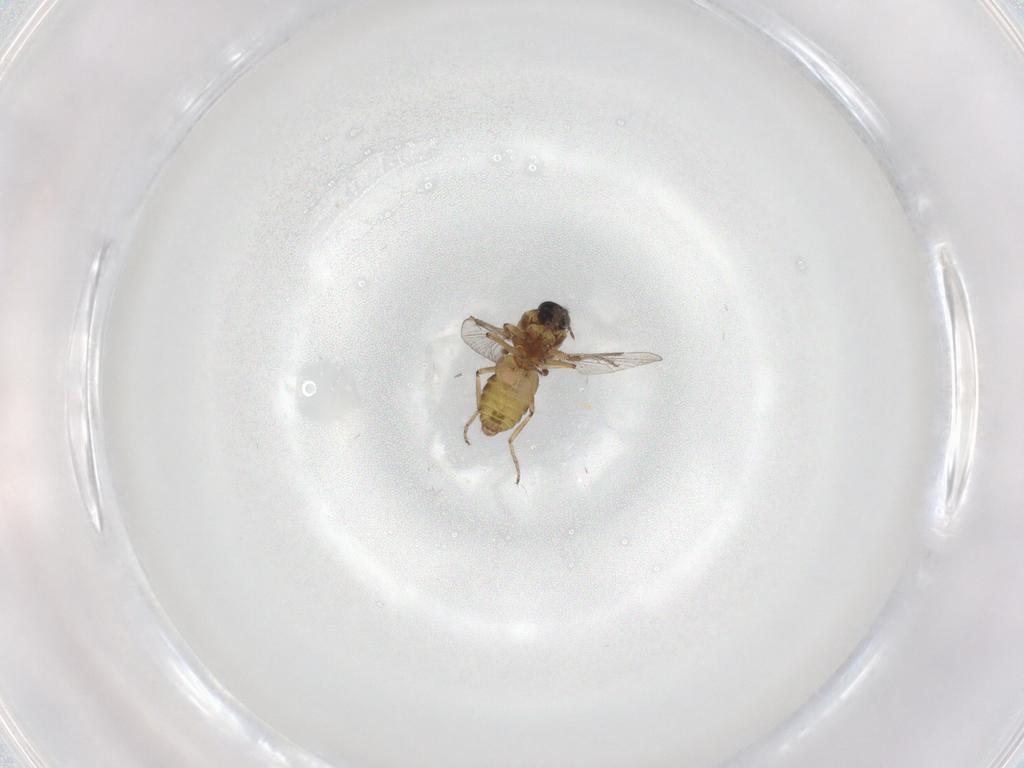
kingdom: Animalia
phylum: Arthropoda
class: Insecta
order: Diptera
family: Ceratopogonidae
